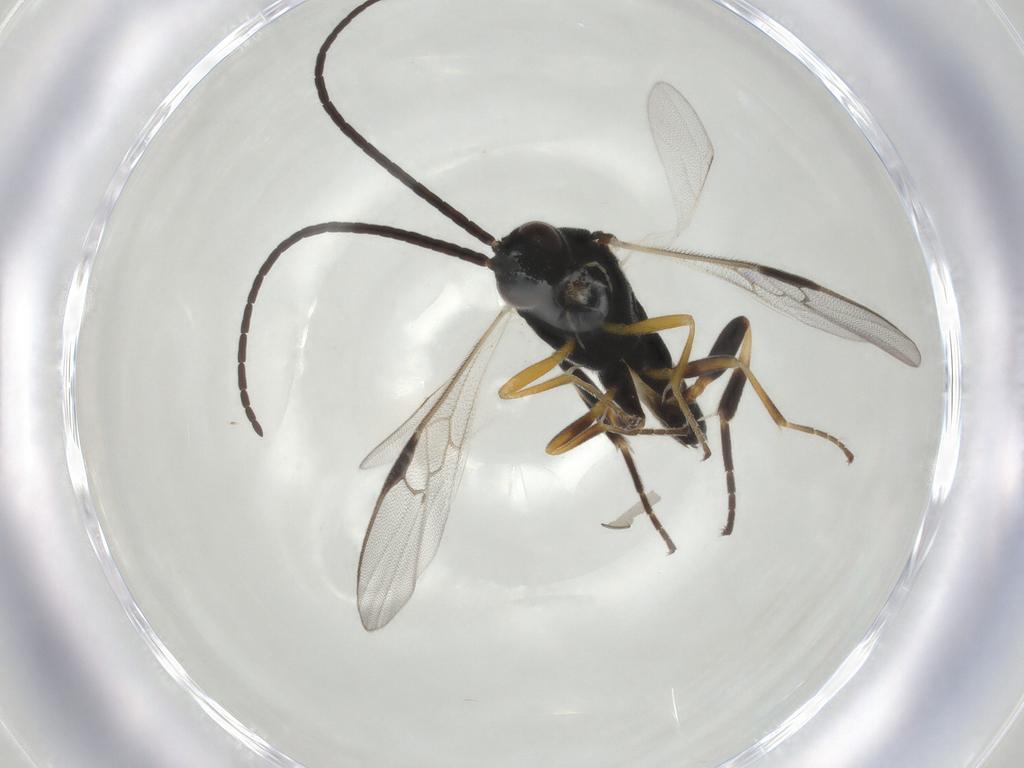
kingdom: Animalia
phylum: Arthropoda
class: Insecta
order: Hymenoptera
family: Braconidae
